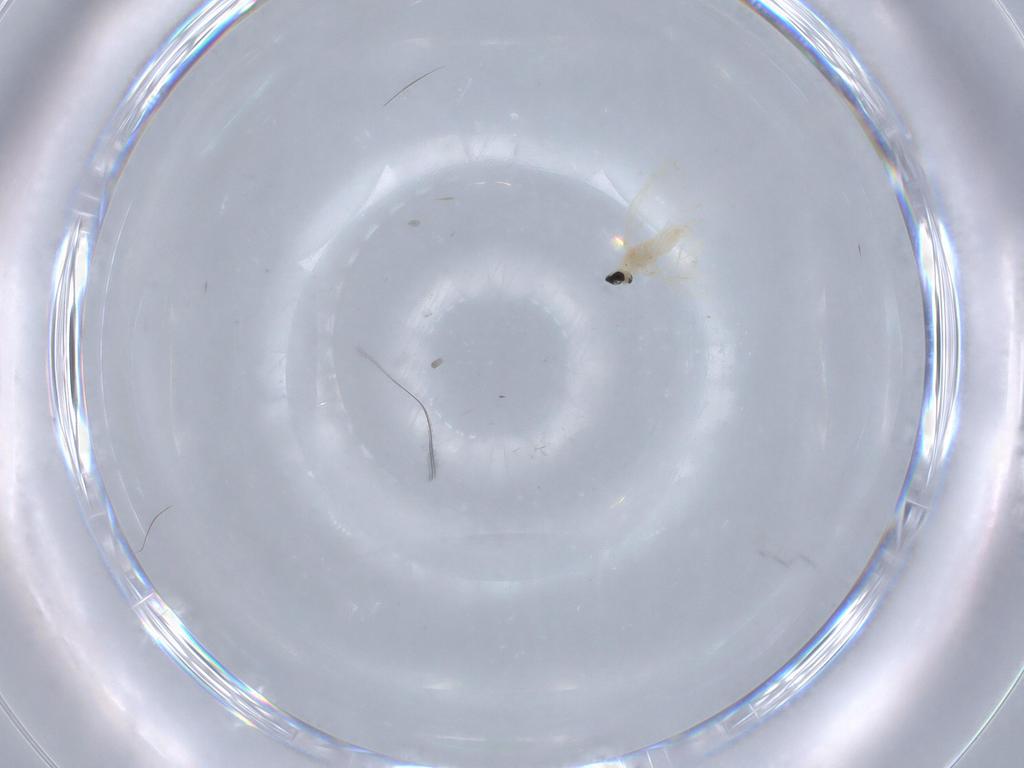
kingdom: Animalia
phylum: Arthropoda
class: Insecta
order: Diptera
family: Cecidomyiidae
